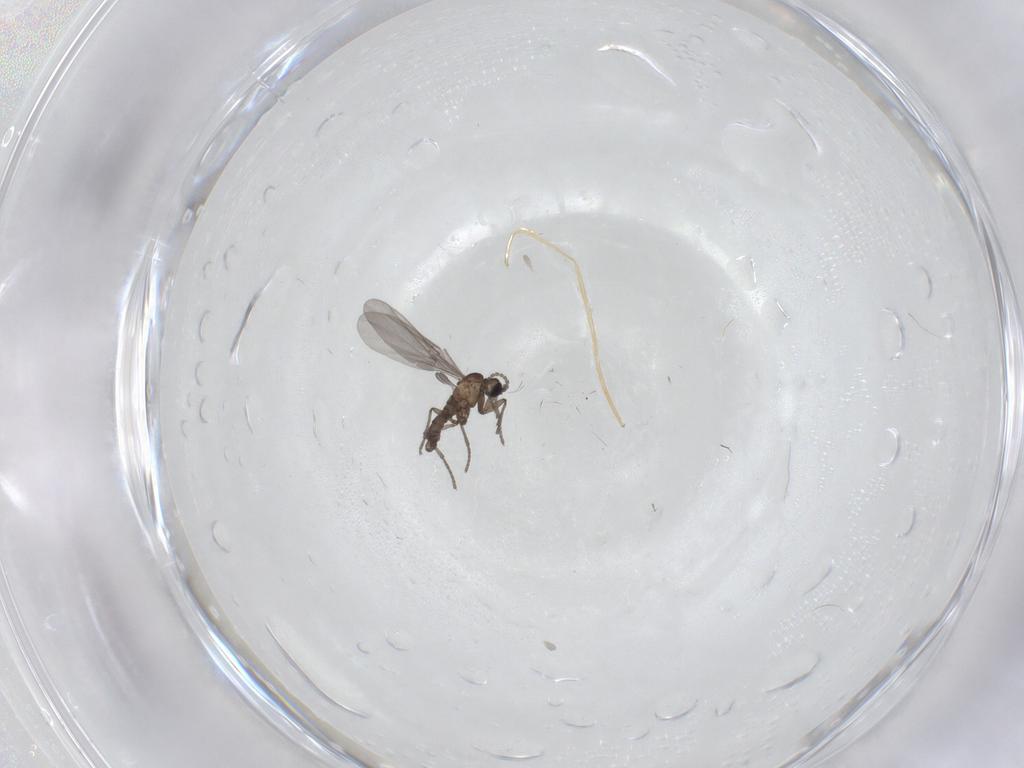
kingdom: Animalia
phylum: Arthropoda
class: Insecta
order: Diptera
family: Sciaridae
